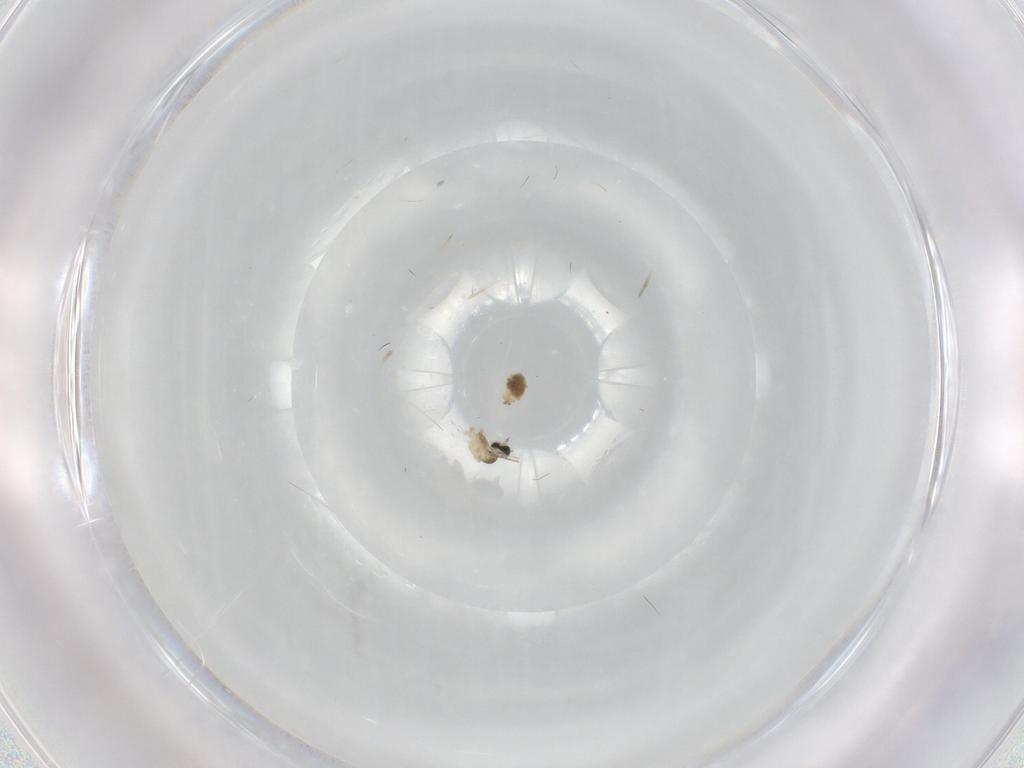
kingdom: Animalia
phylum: Arthropoda
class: Insecta
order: Diptera
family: Cecidomyiidae
